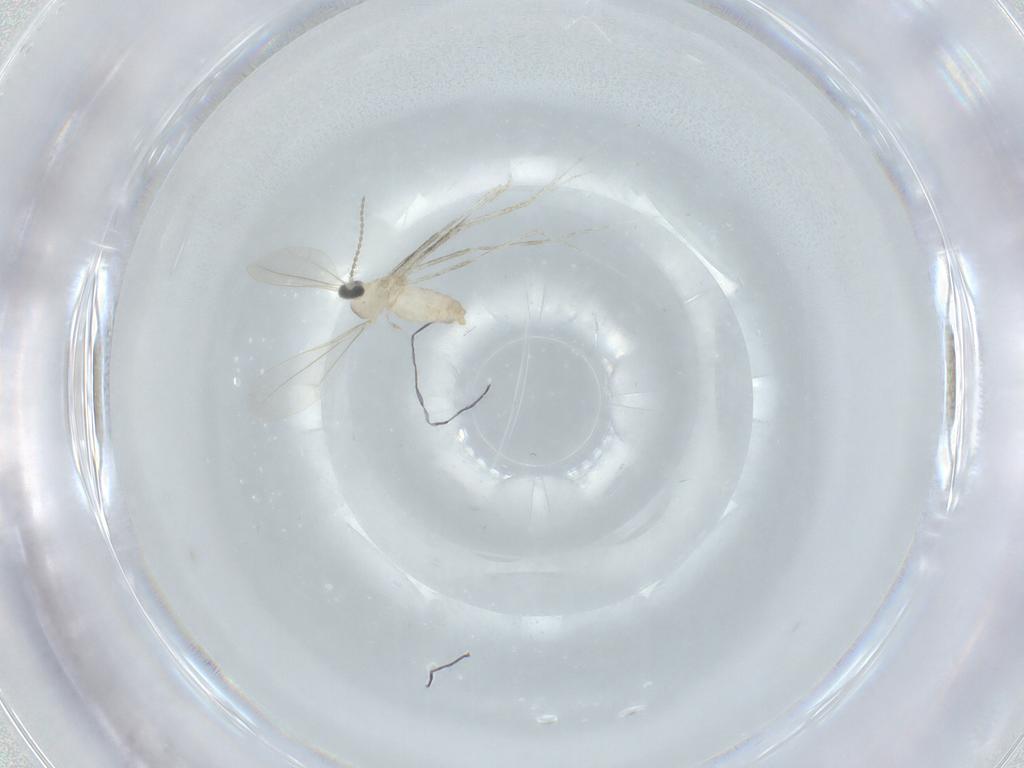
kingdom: Animalia
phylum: Arthropoda
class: Insecta
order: Diptera
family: Cecidomyiidae
